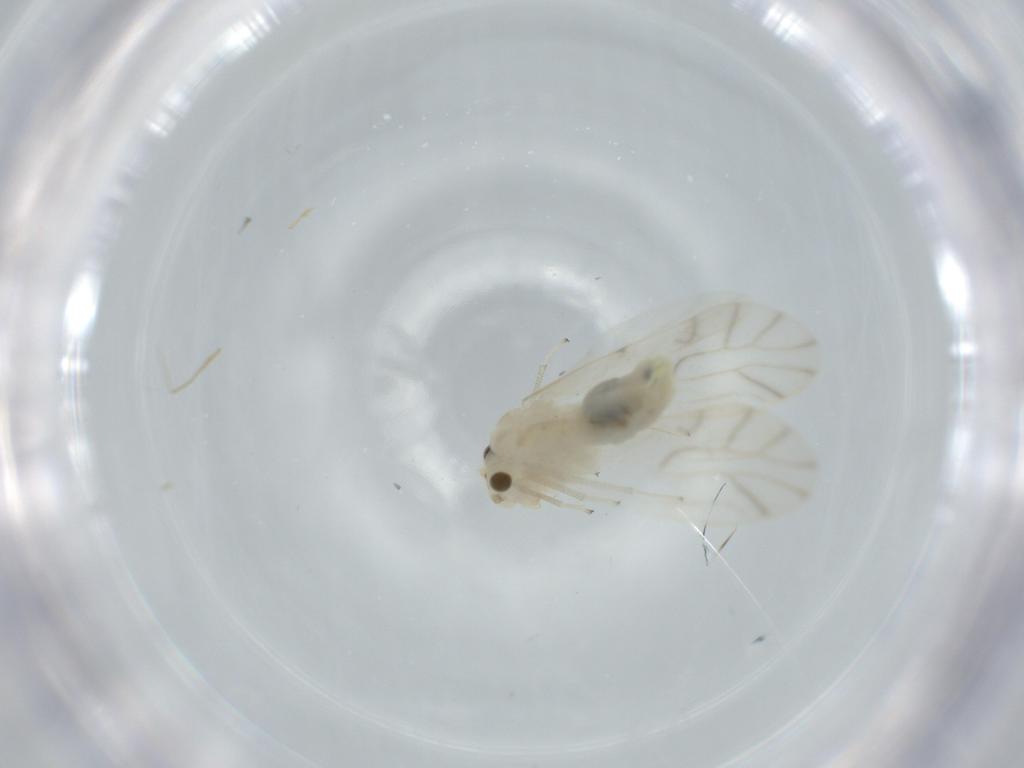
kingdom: Animalia
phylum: Arthropoda
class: Insecta
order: Psocodea
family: Caeciliusidae
